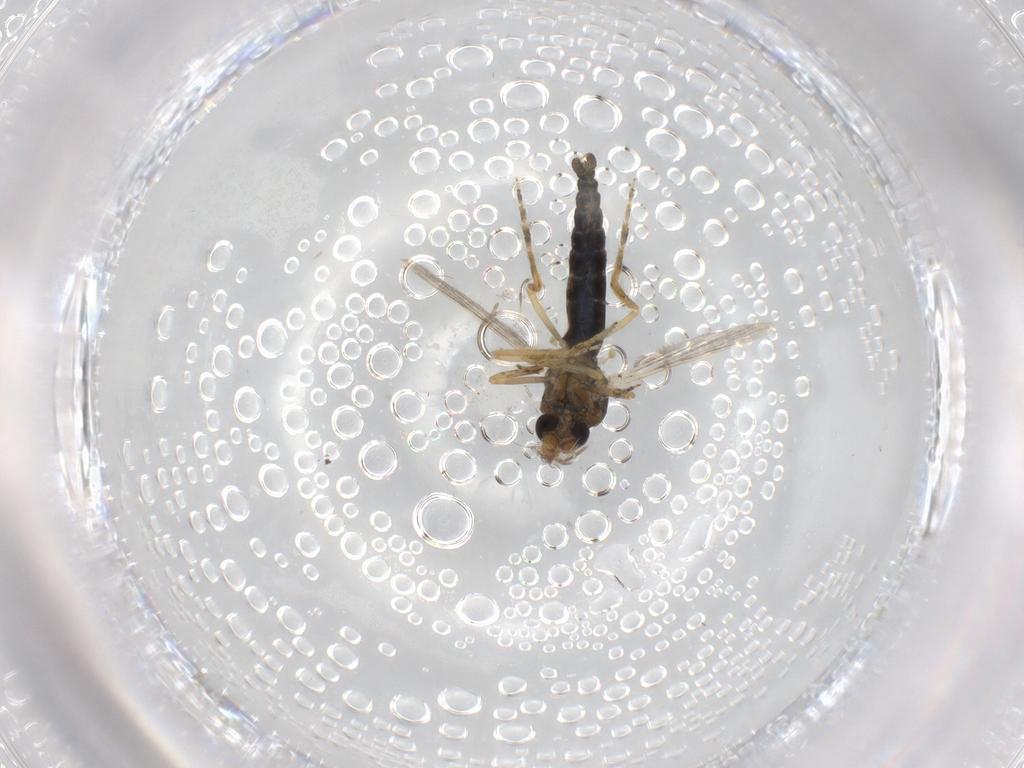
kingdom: Animalia
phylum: Arthropoda
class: Insecta
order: Diptera
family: Ceratopogonidae
